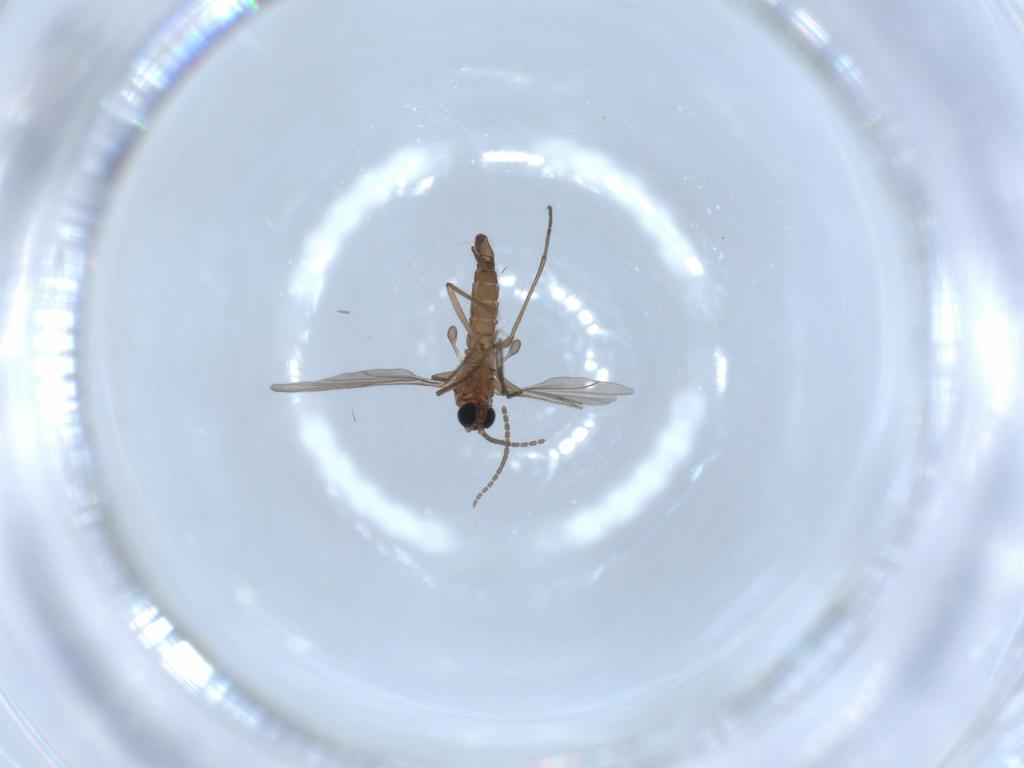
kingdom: Animalia
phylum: Arthropoda
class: Insecta
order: Diptera
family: Sciaridae
